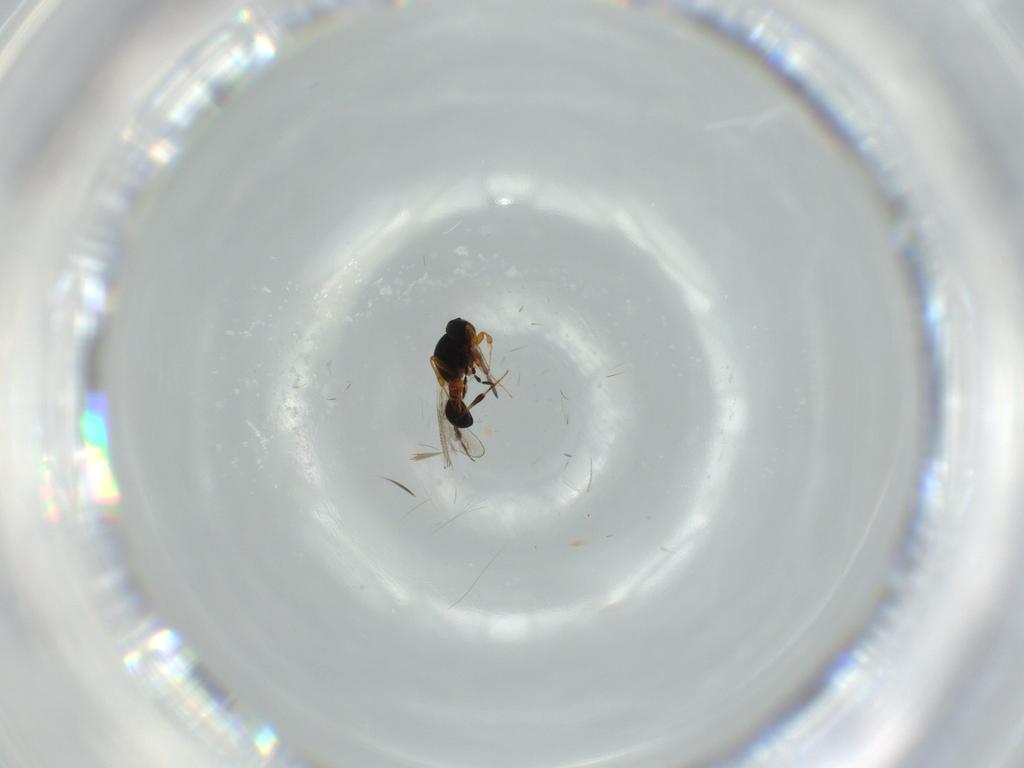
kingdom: Animalia
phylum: Arthropoda
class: Insecta
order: Hymenoptera
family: Platygastridae
